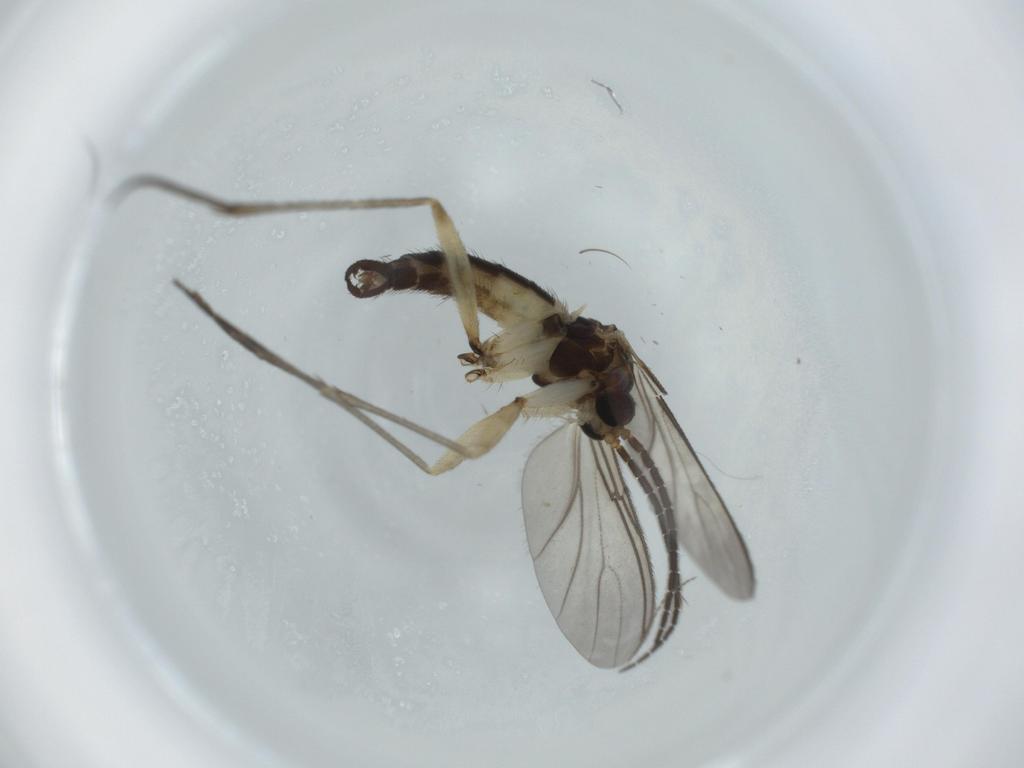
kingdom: Animalia
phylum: Arthropoda
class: Insecta
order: Diptera
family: Sciaridae
